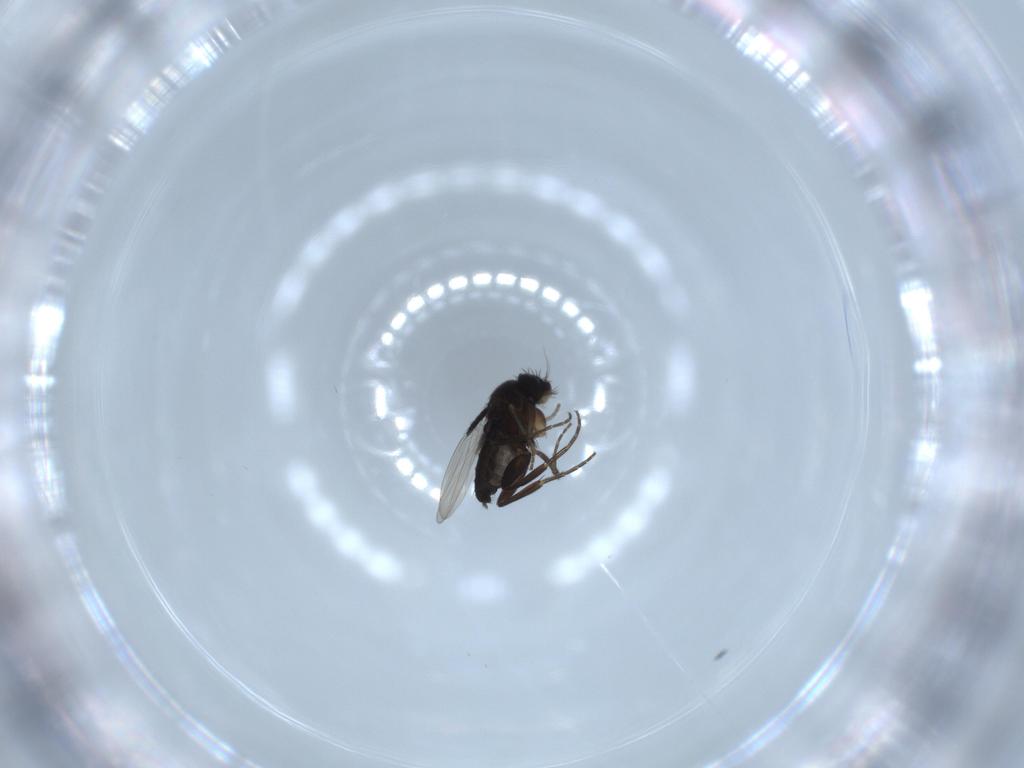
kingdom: Animalia
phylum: Arthropoda
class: Insecta
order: Diptera
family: Phoridae
